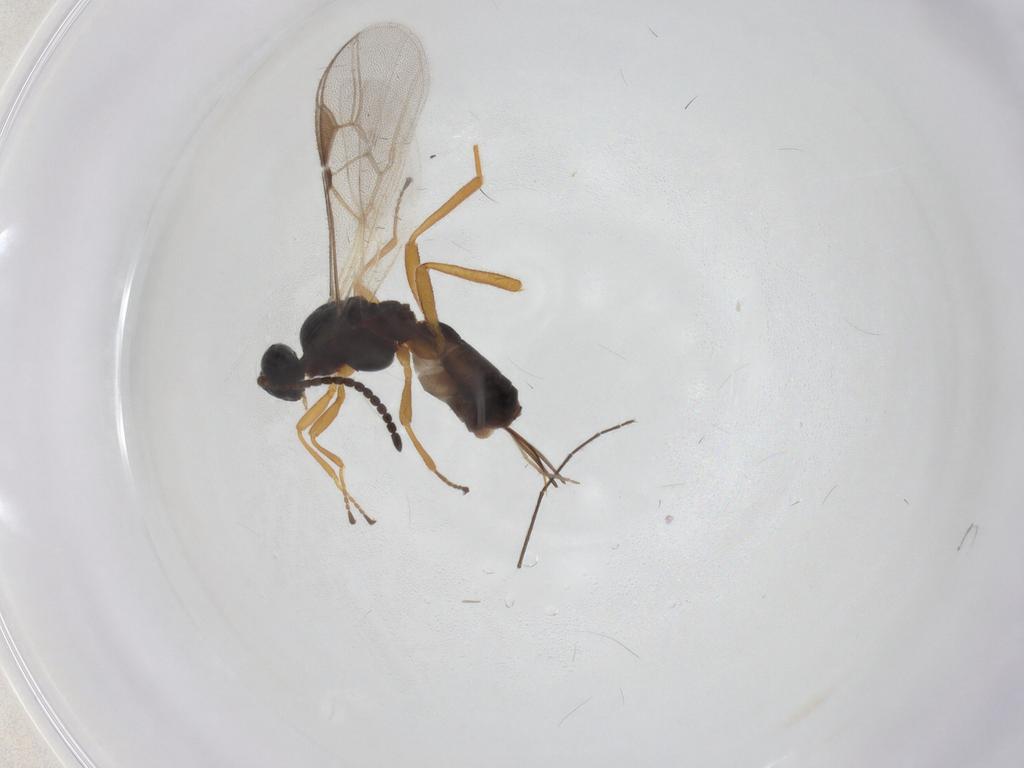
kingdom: Animalia
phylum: Arthropoda
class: Insecta
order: Hymenoptera
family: Braconidae
